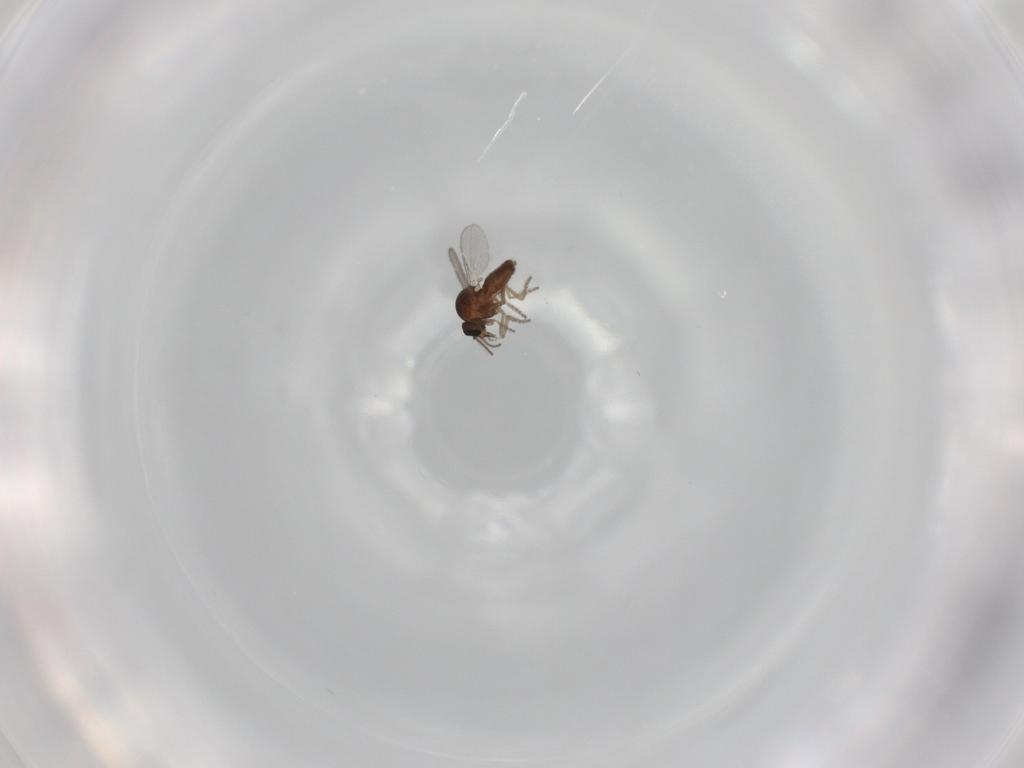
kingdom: Animalia
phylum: Arthropoda
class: Insecta
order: Diptera
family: Ceratopogonidae
